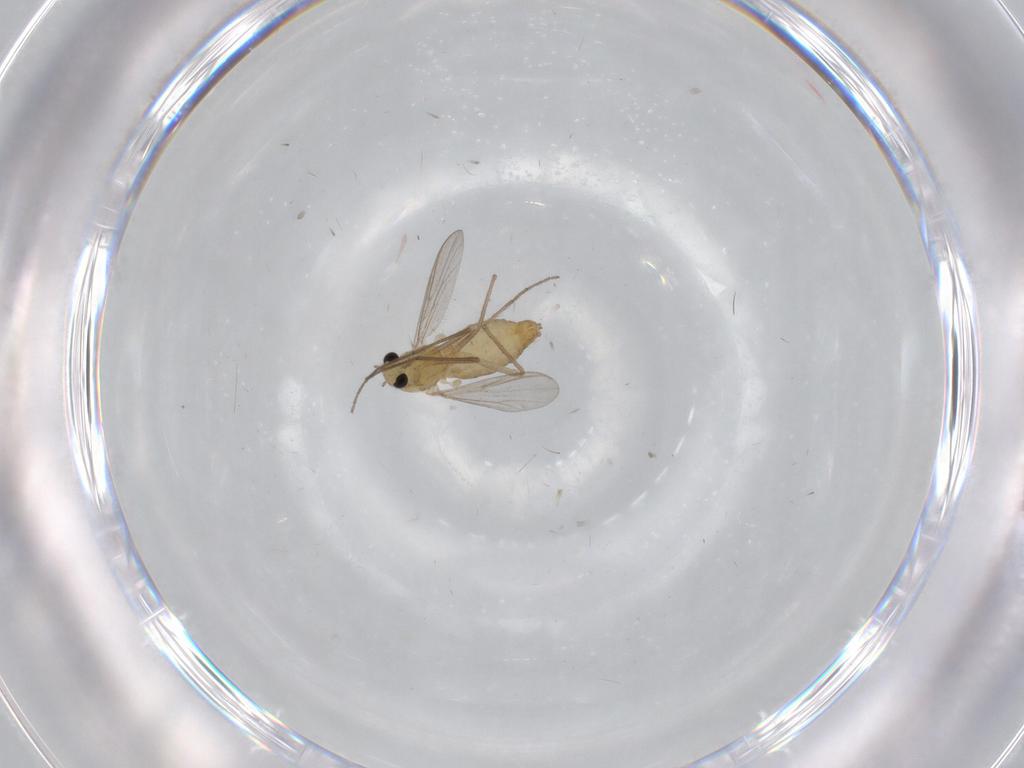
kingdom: Animalia
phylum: Arthropoda
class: Insecta
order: Diptera
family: Chironomidae
